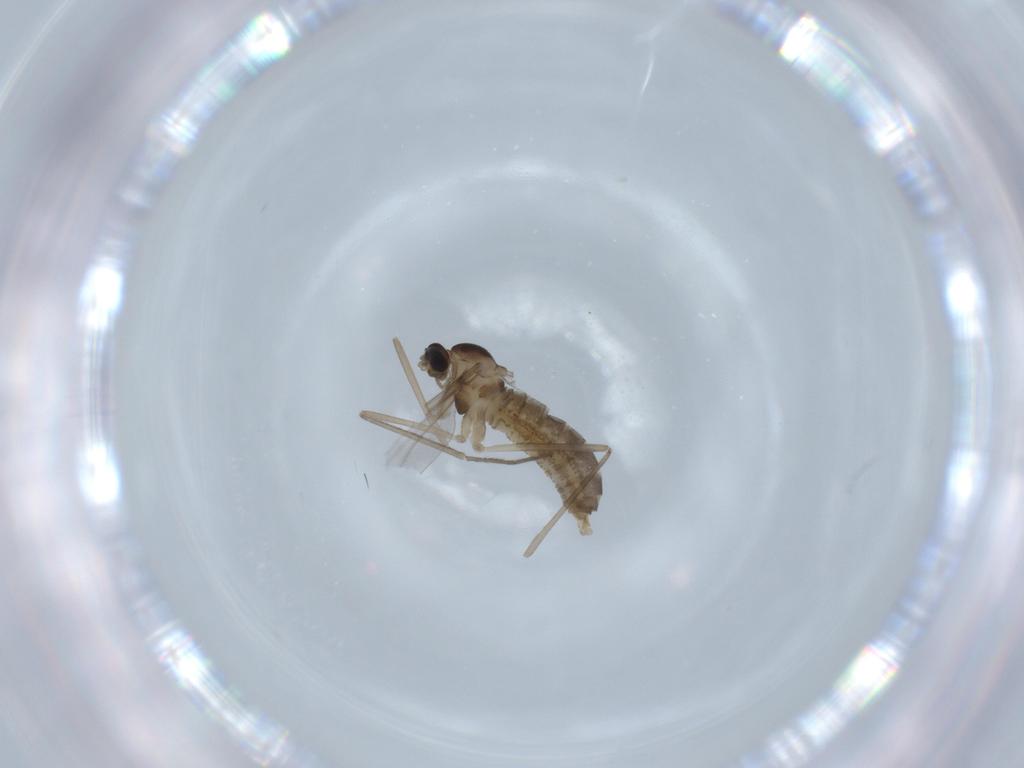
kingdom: Animalia
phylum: Arthropoda
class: Insecta
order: Diptera
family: Cecidomyiidae
